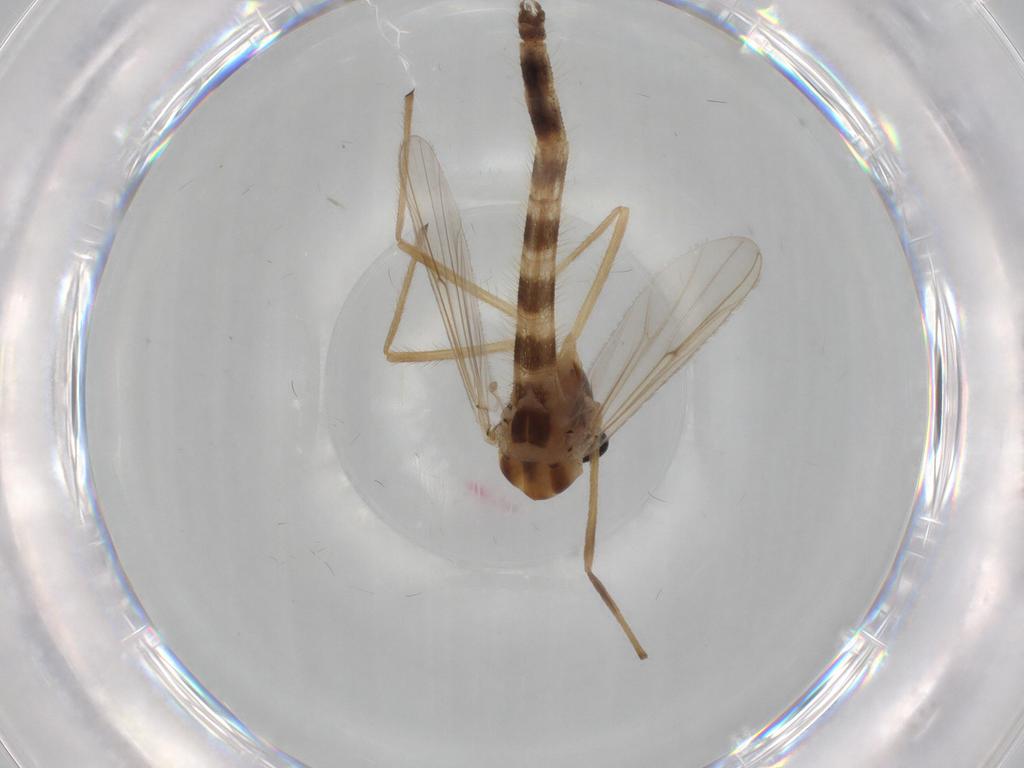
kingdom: Animalia
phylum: Arthropoda
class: Insecta
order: Diptera
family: Chironomidae
